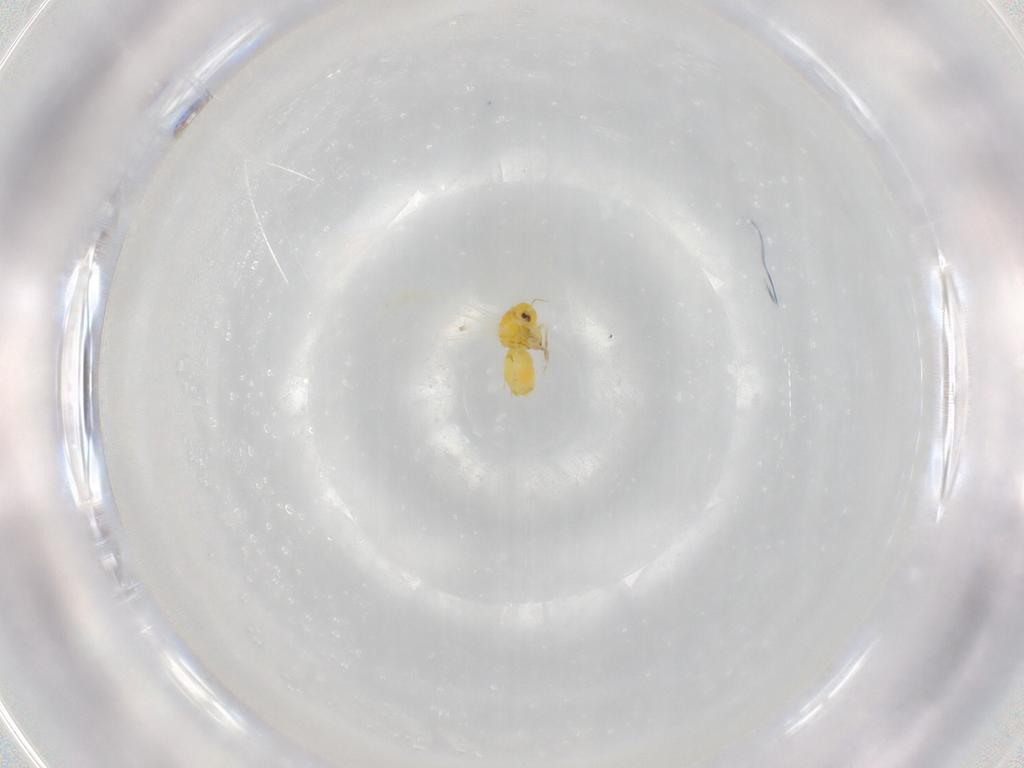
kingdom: Animalia
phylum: Arthropoda
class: Insecta
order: Hemiptera
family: Aleyrodidae
